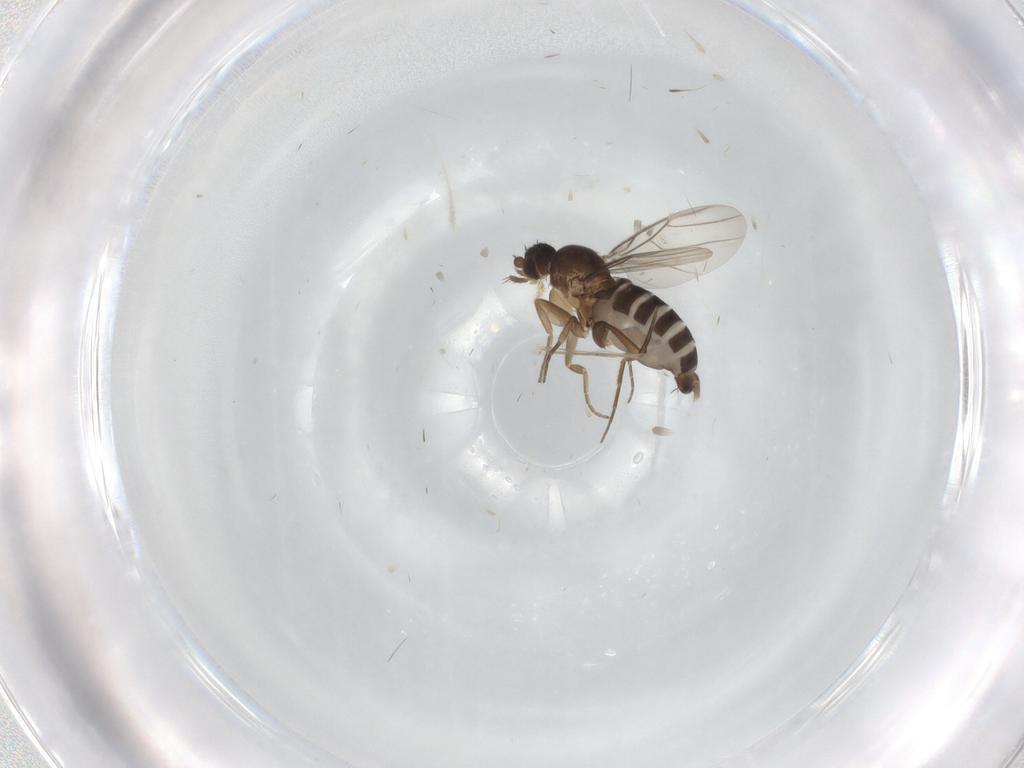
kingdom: Animalia
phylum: Arthropoda
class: Insecta
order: Diptera
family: Phoridae
